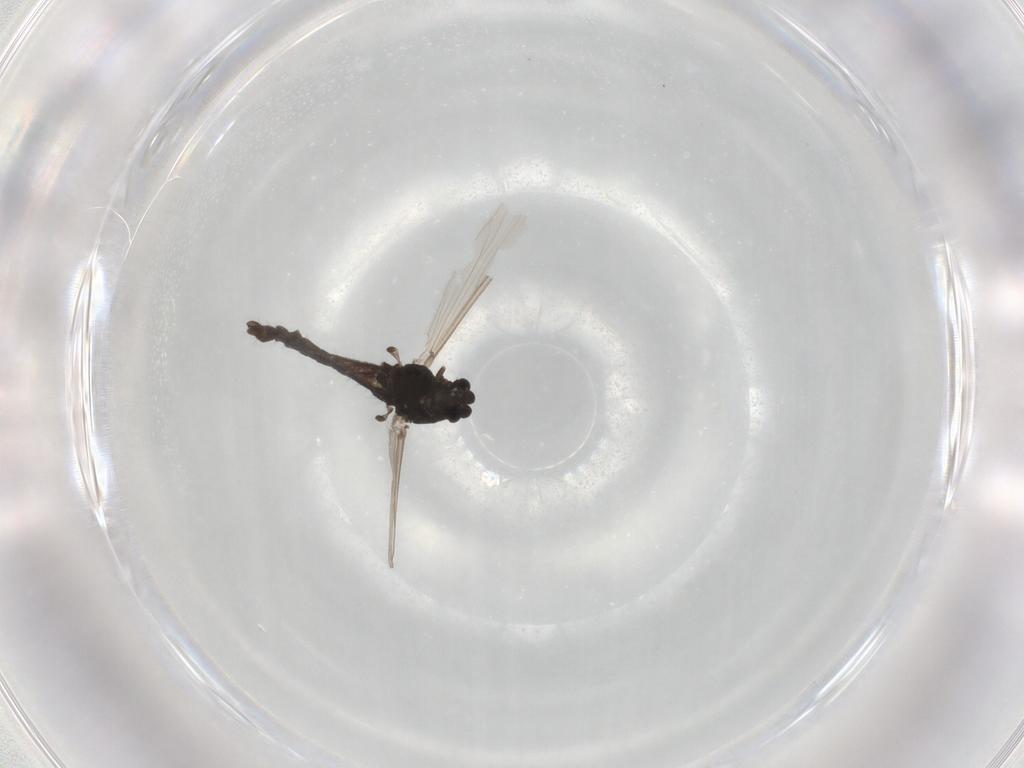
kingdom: Animalia
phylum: Arthropoda
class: Insecta
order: Diptera
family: Chironomidae
